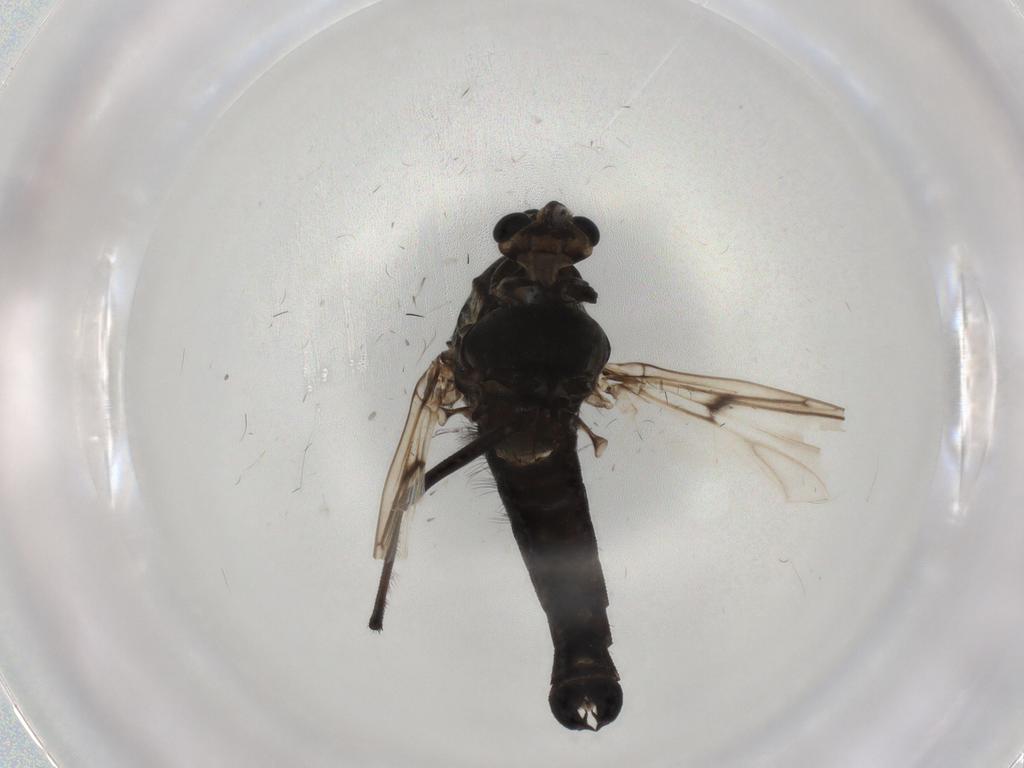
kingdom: Animalia
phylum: Arthropoda
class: Insecta
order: Diptera
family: Chironomidae
